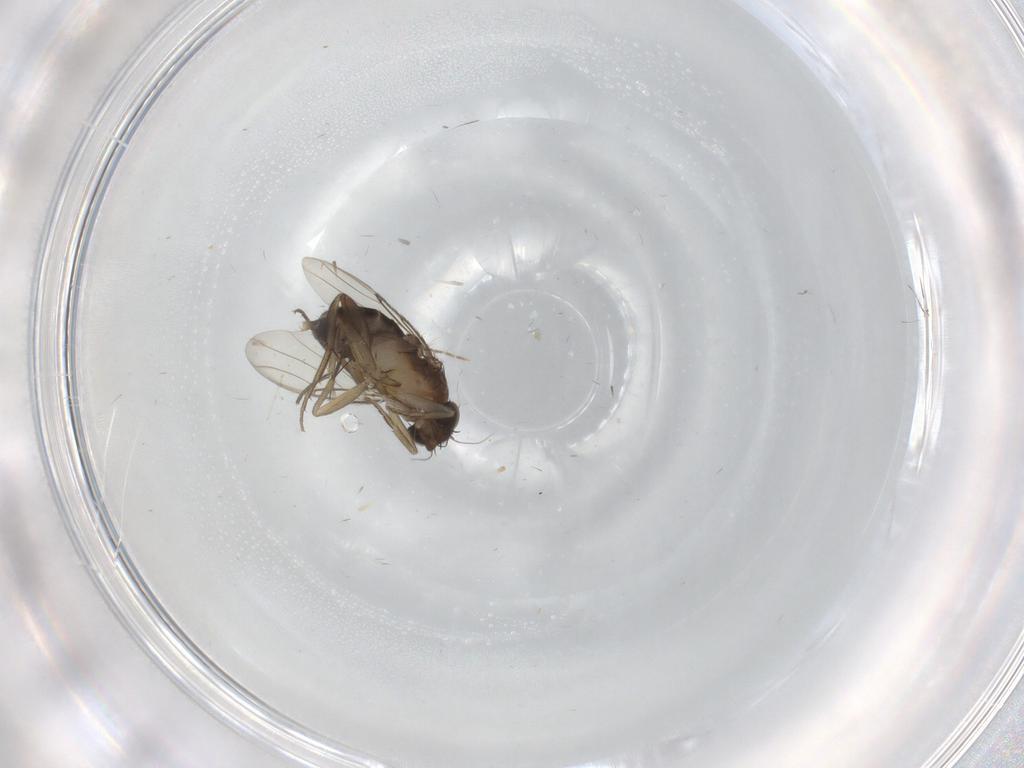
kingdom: Animalia
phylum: Arthropoda
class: Insecta
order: Diptera
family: Phoridae
